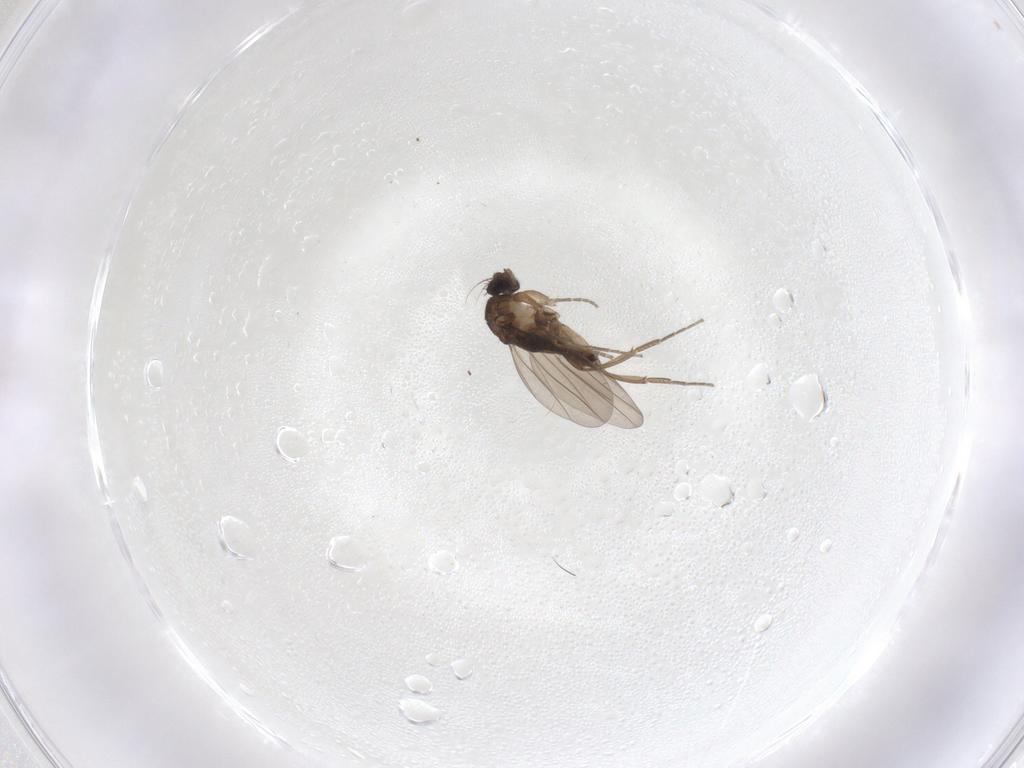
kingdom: Animalia
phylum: Arthropoda
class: Insecta
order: Diptera
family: Phoridae
